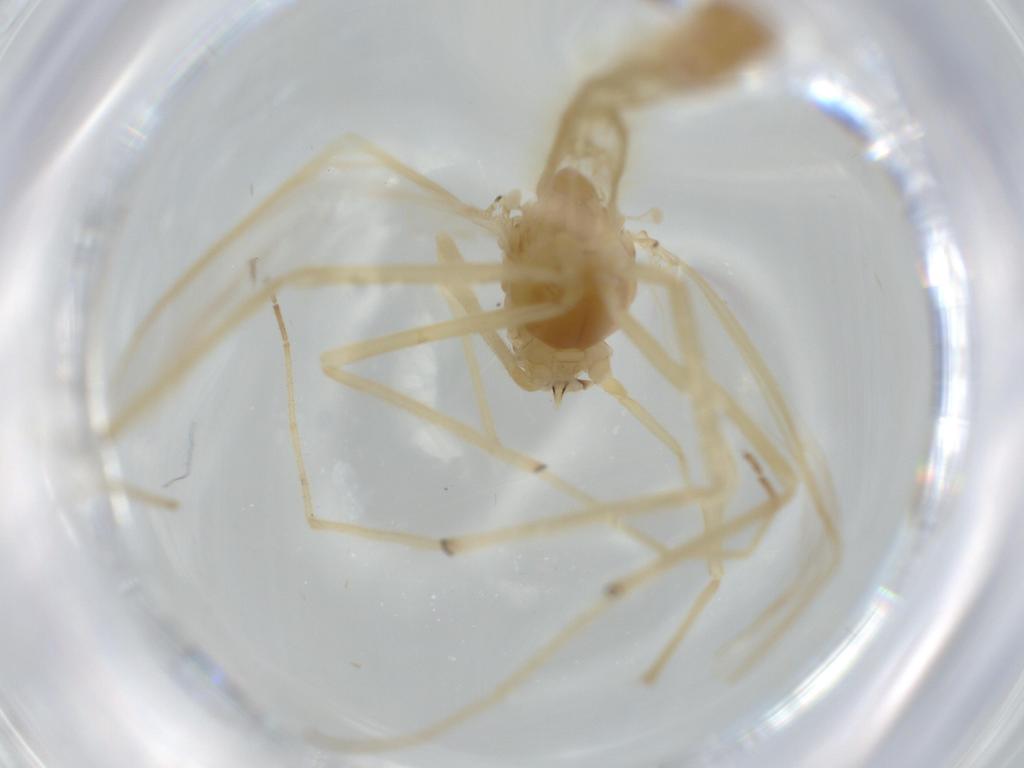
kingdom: Animalia
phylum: Arthropoda
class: Insecta
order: Diptera
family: Chironomidae
